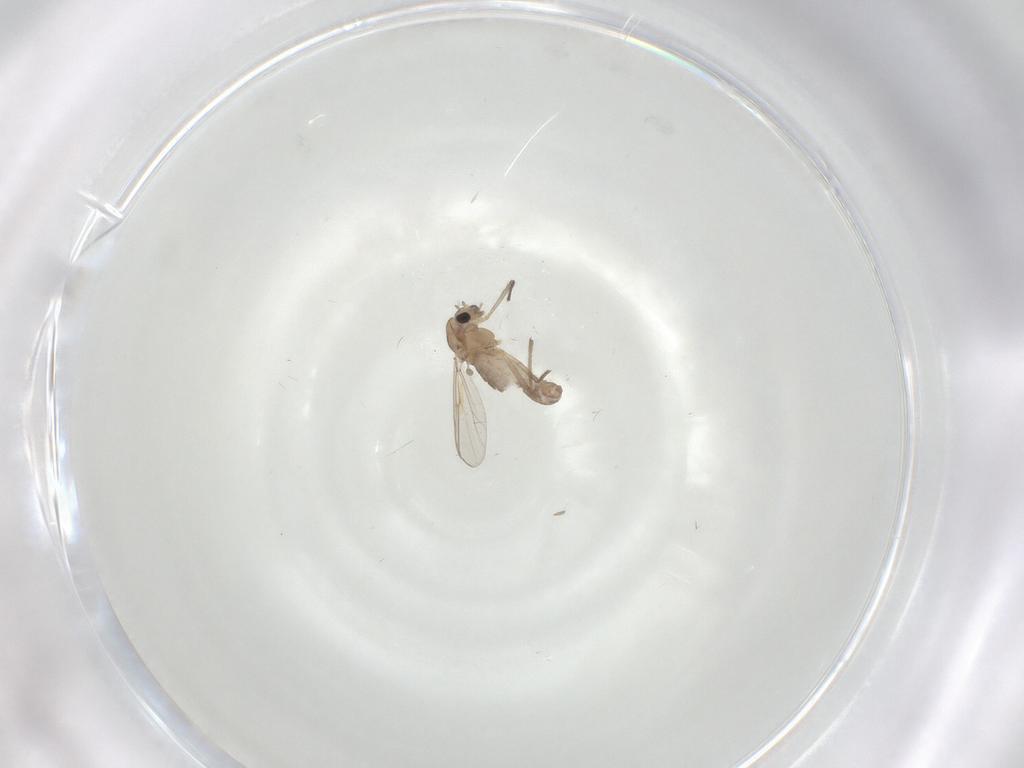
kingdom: Animalia
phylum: Arthropoda
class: Insecta
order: Diptera
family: Chironomidae
